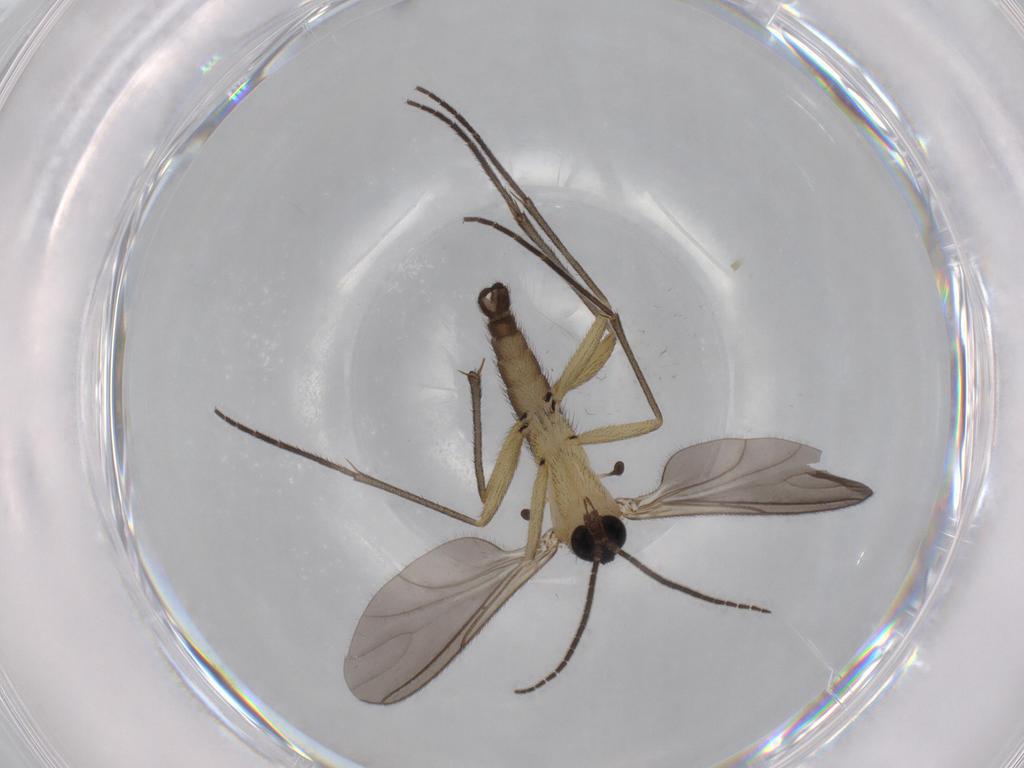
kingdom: Animalia
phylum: Arthropoda
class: Insecta
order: Diptera
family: Sciaridae
